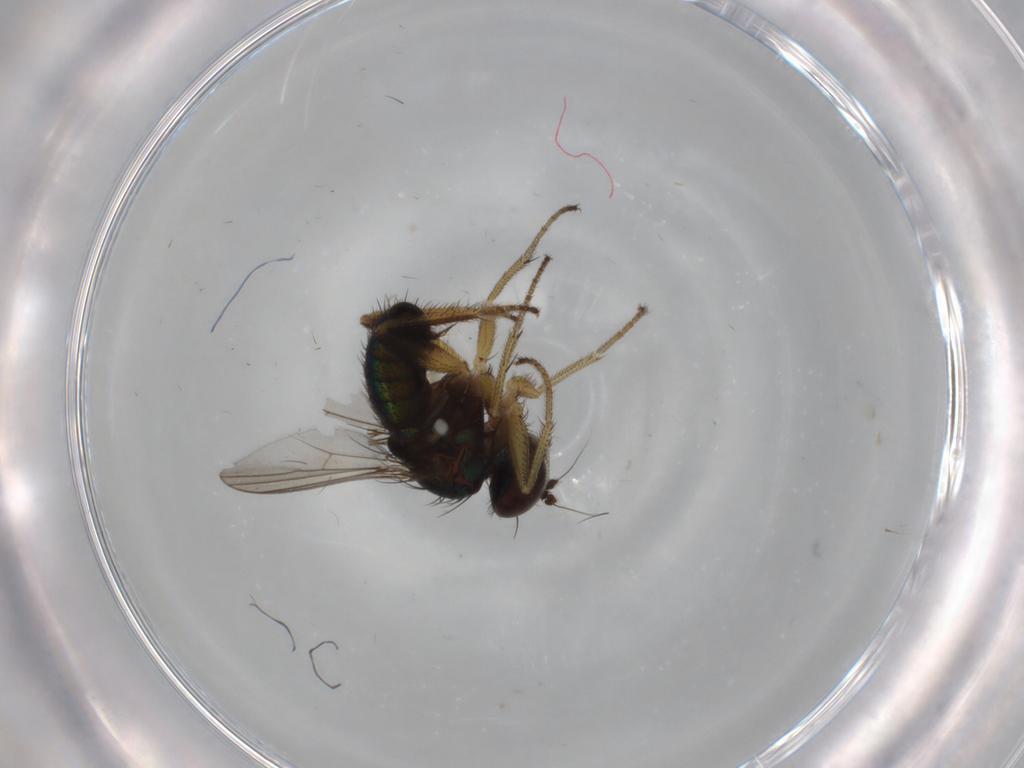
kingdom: Animalia
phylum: Arthropoda
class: Insecta
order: Diptera
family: Dolichopodidae
